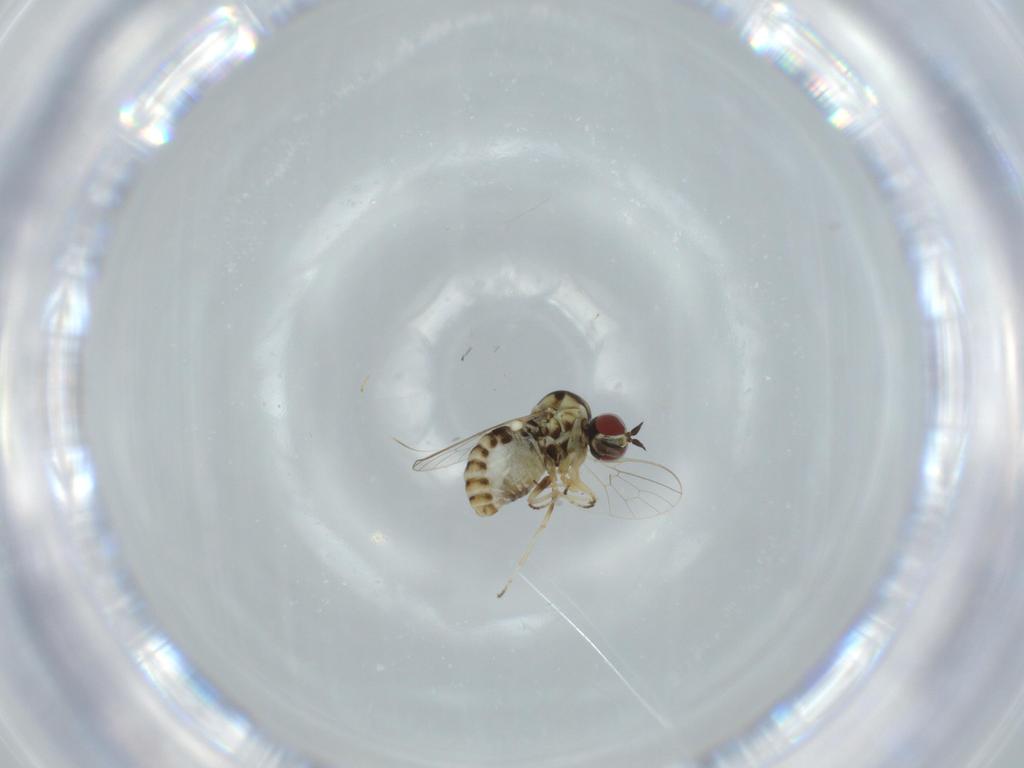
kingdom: Animalia
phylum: Arthropoda
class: Insecta
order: Diptera
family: Bombyliidae
